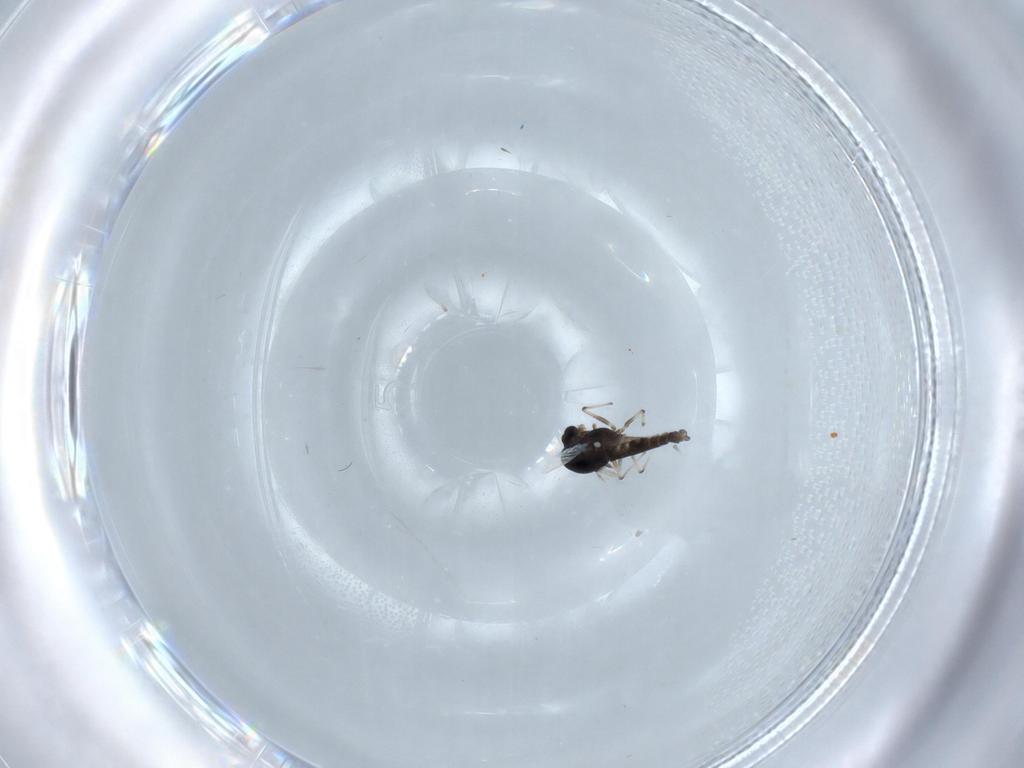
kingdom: Animalia
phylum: Arthropoda
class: Insecta
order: Diptera
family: Chironomidae
